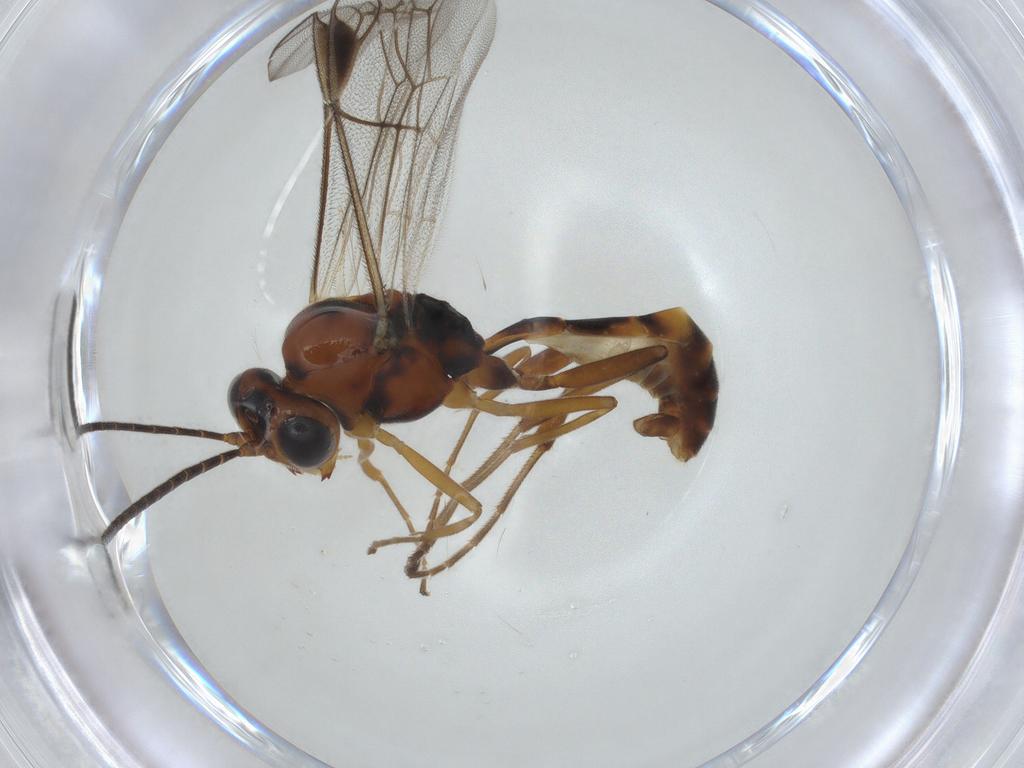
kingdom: Animalia
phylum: Arthropoda
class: Insecta
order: Hymenoptera
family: Ichneumonidae
